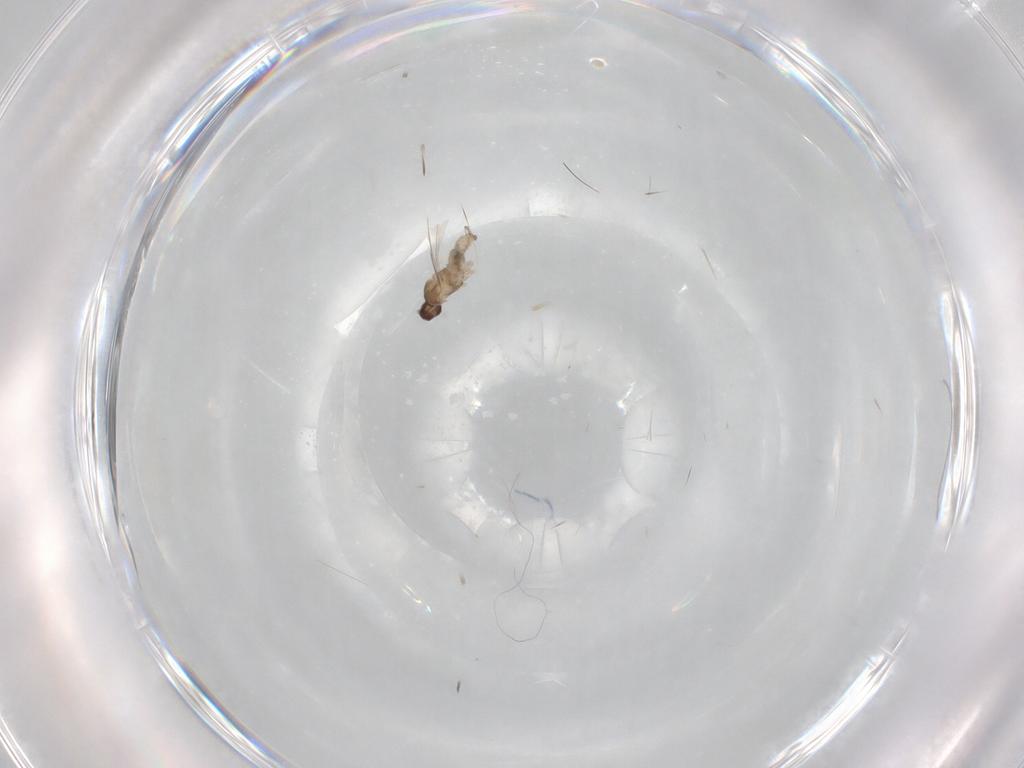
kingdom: Animalia
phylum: Arthropoda
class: Insecta
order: Diptera
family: Cecidomyiidae
